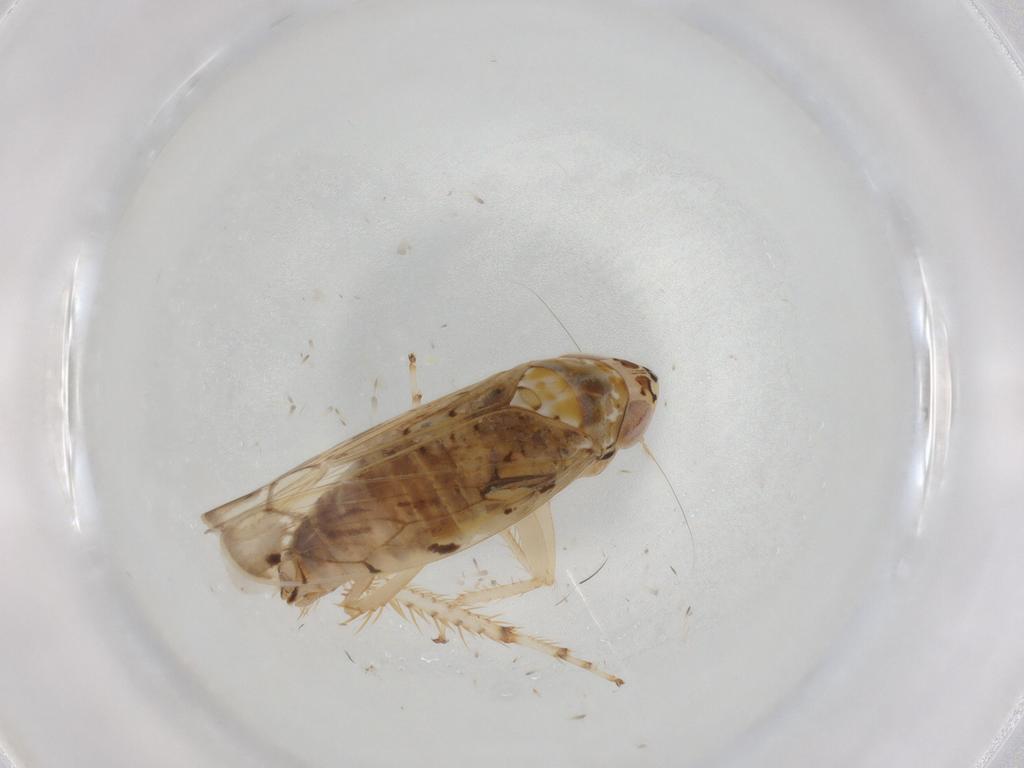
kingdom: Animalia
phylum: Arthropoda
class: Insecta
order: Hemiptera
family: Cicadellidae
